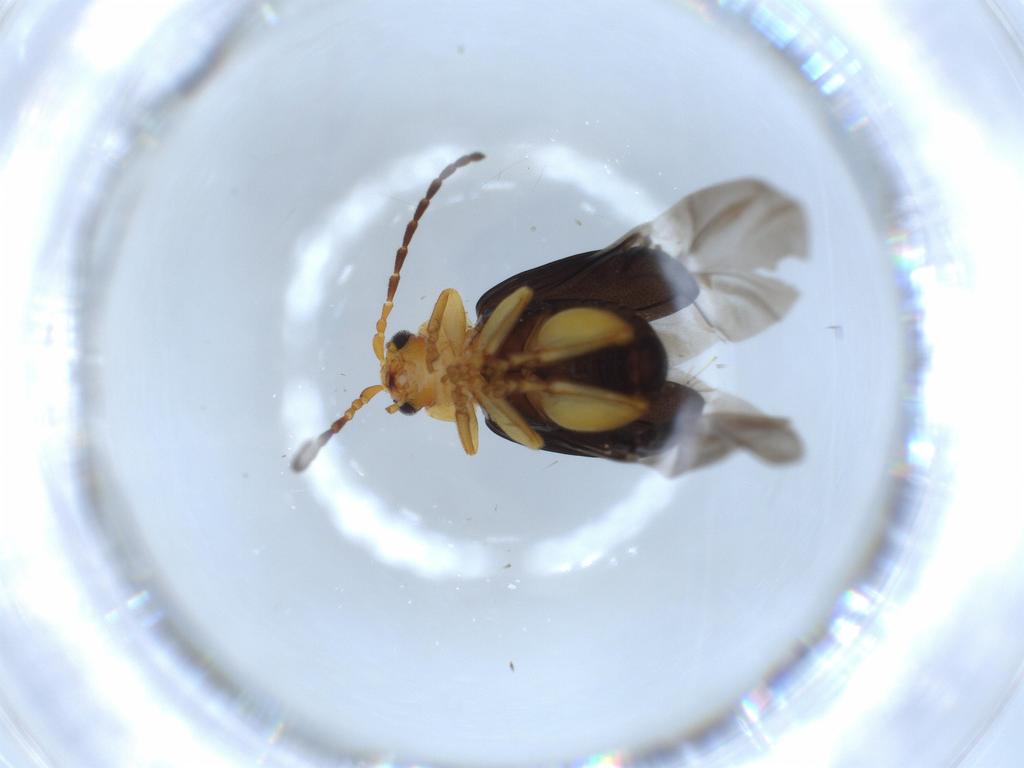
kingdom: Animalia
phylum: Arthropoda
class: Insecta
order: Coleoptera
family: Chrysomelidae
